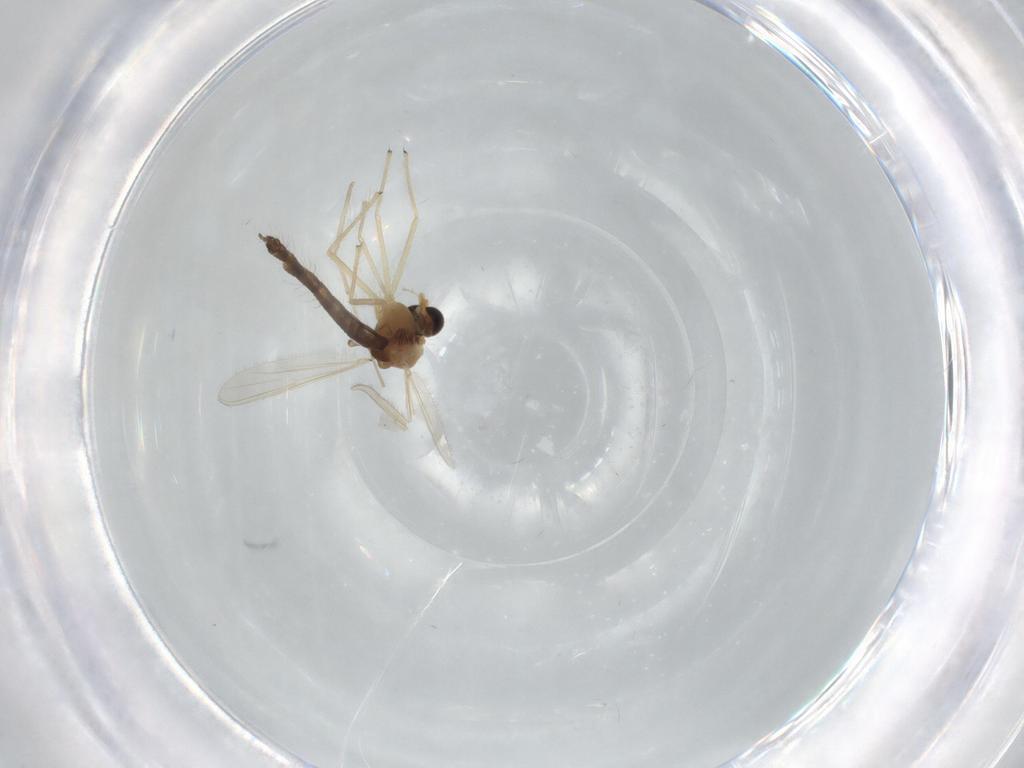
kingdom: Animalia
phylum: Arthropoda
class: Insecta
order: Diptera
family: Chironomidae
